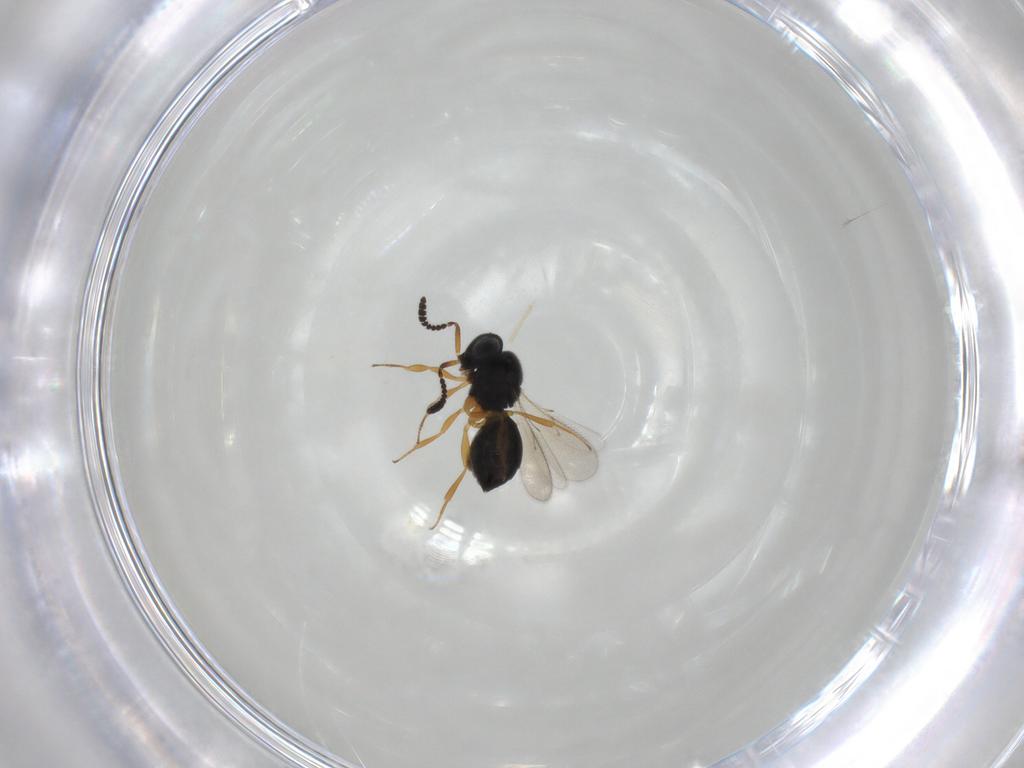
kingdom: Animalia
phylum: Arthropoda
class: Insecta
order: Hymenoptera
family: Scelionidae
